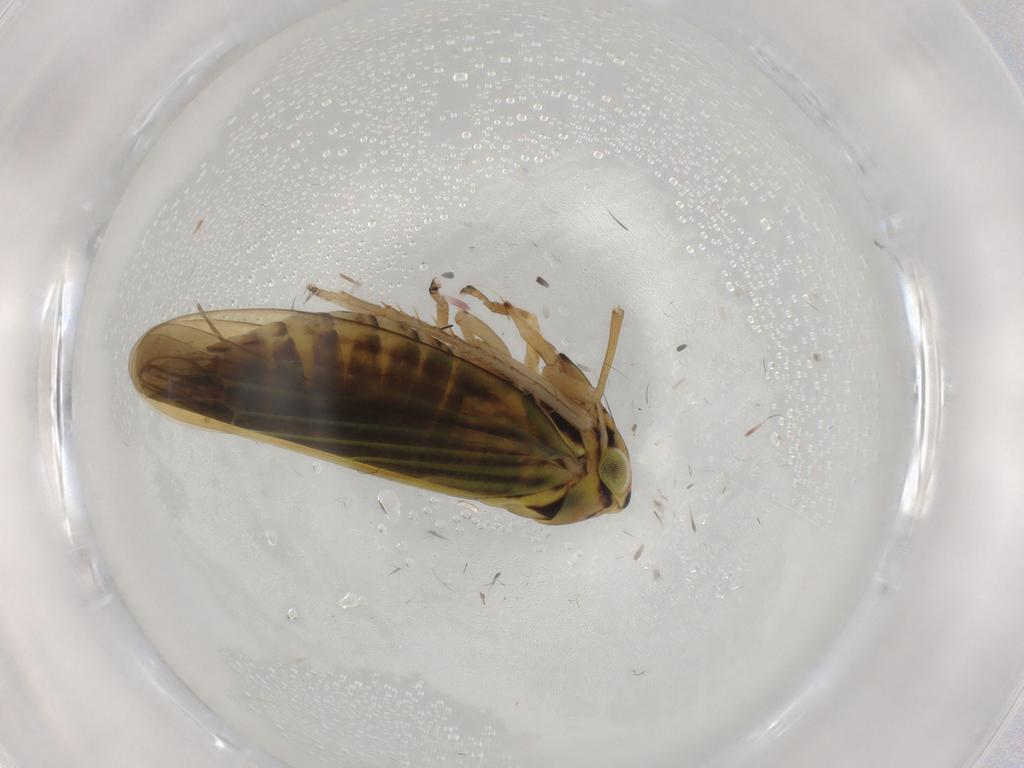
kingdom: Animalia
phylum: Arthropoda
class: Insecta
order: Hemiptera
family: Cicadellidae
